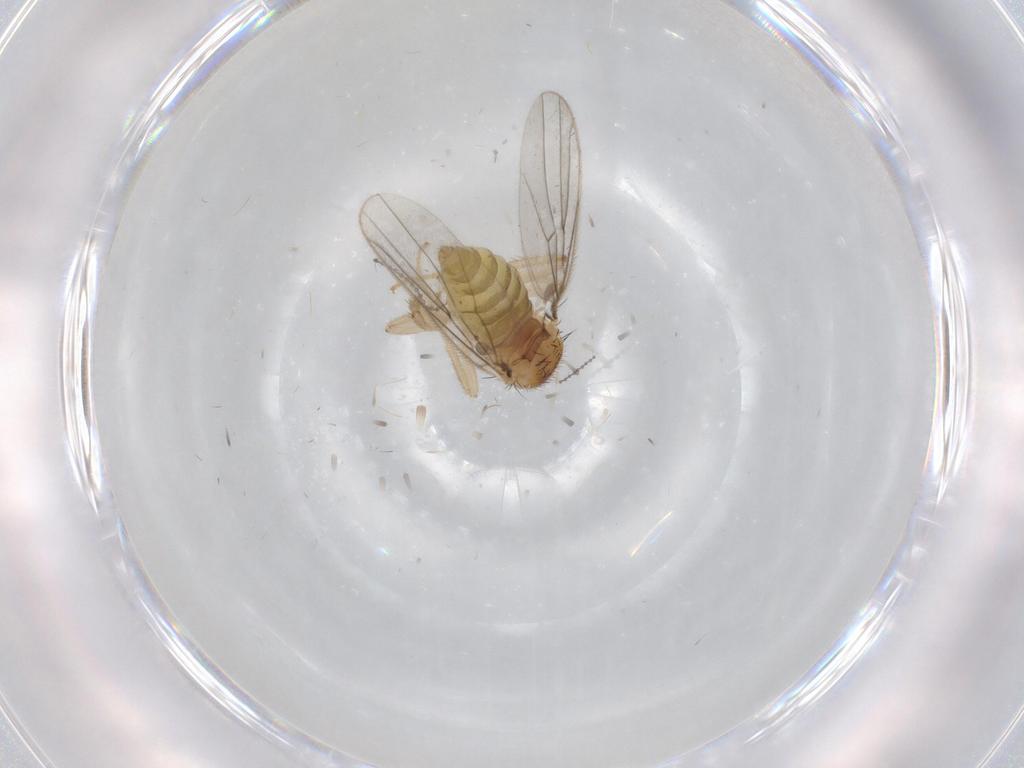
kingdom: Animalia
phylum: Arthropoda
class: Insecta
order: Diptera
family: Hybotidae
